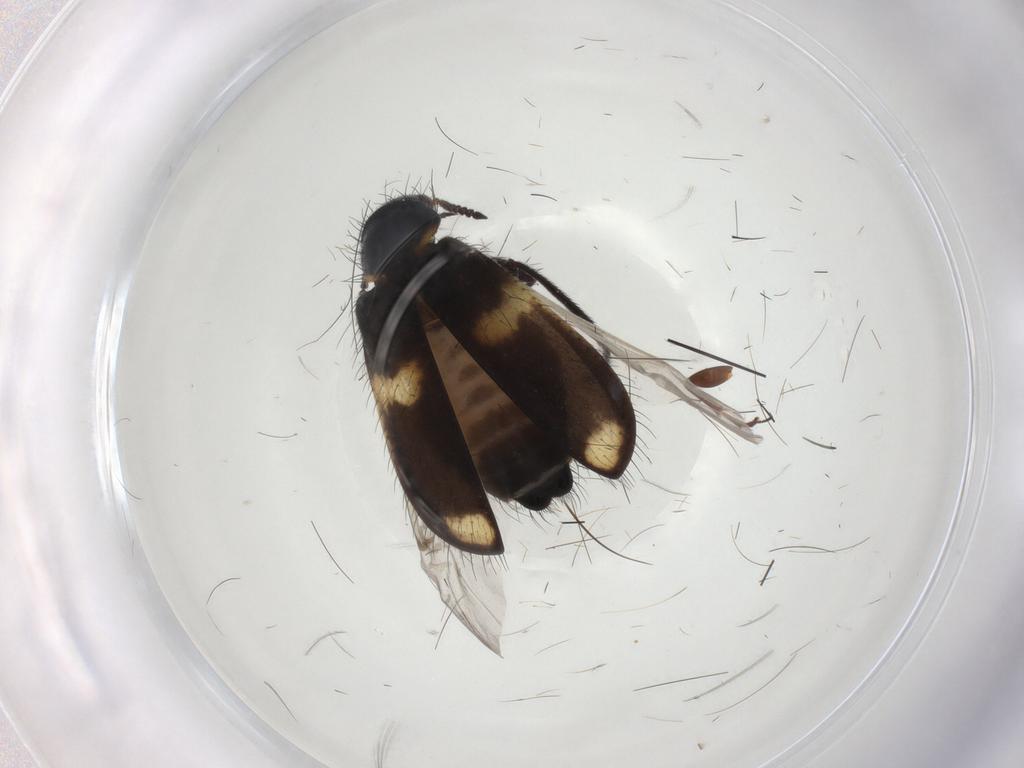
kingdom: Animalia
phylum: Arthropoda
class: Insecta
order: Coleoptera
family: Melyridae
